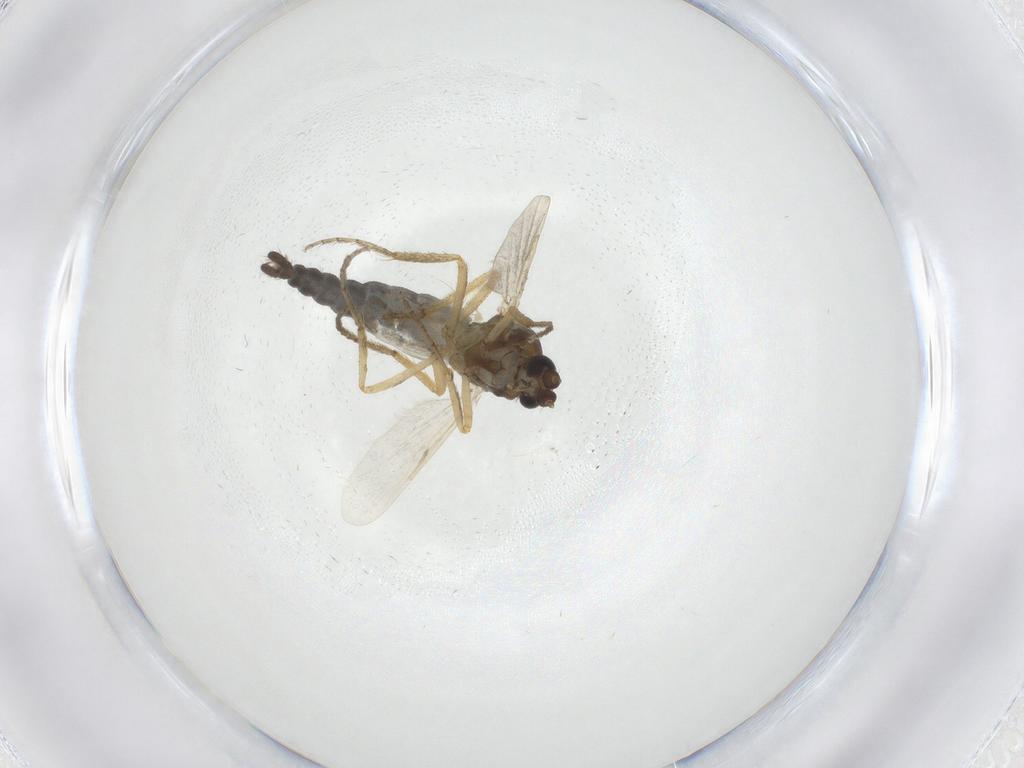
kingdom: Animalia
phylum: Arthropoda
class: Insecta
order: Diptera
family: Ceratopogonidae
